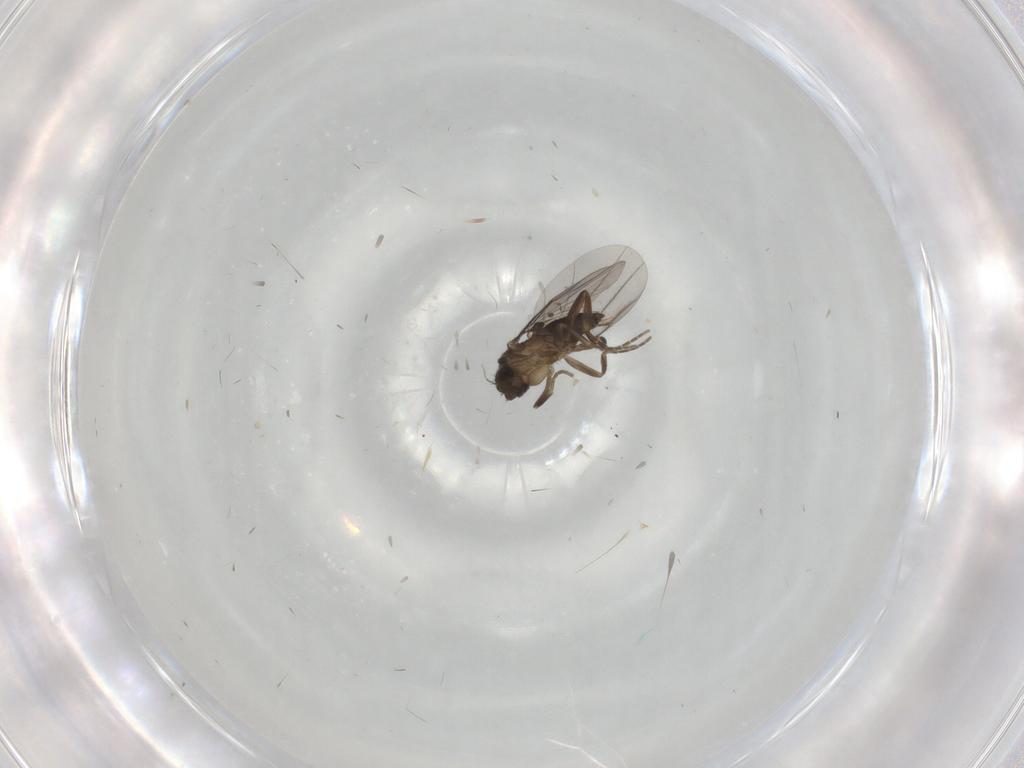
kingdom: Animalia
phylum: Arthropoda
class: Insecta
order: Diptera
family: Phoridae
